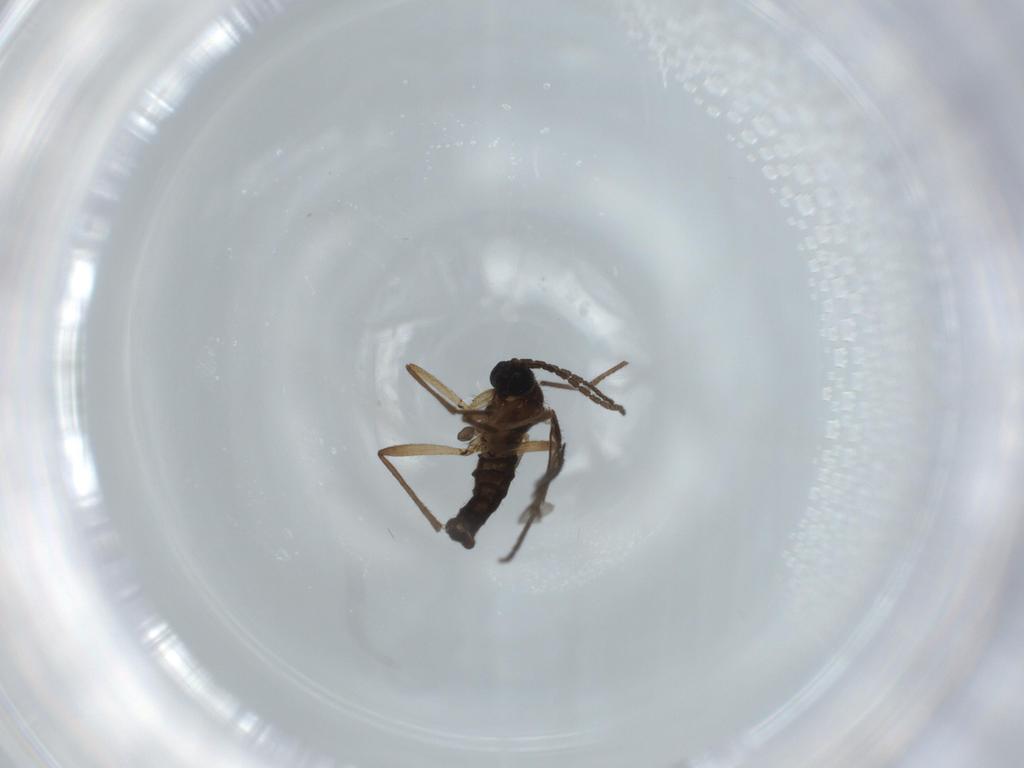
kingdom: Animalia
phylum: Arthropoda
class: Insecta
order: Diptera
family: Sciaridae
